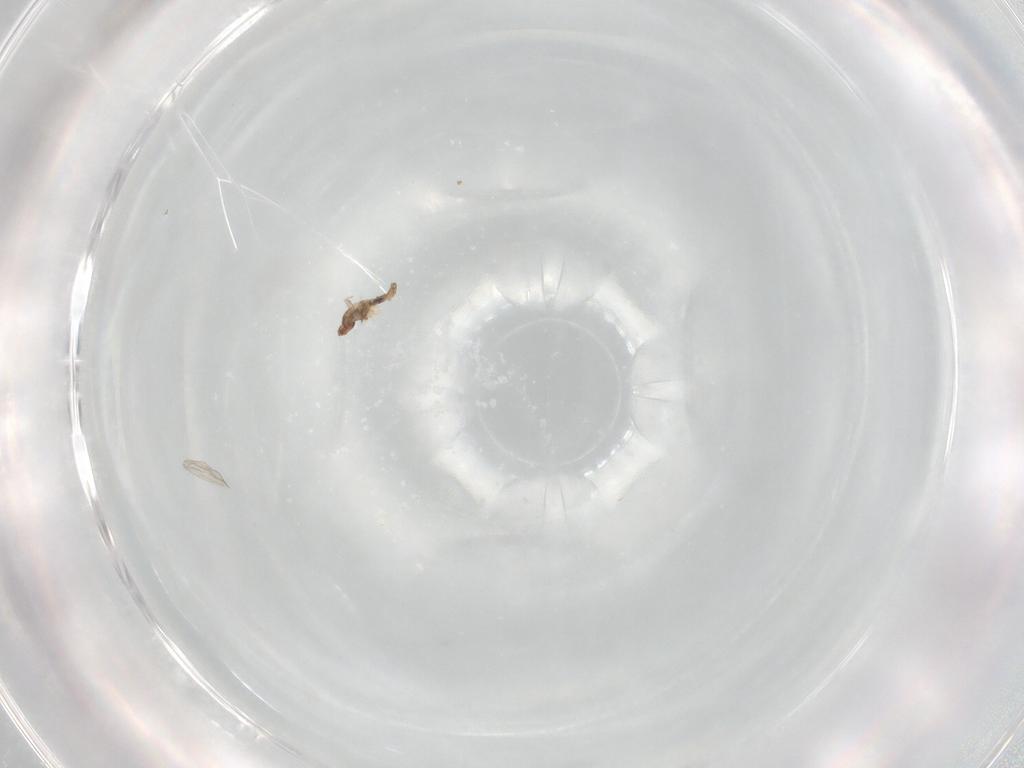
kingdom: Animalia
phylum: Arthropoda
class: Insecta
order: Diptera
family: Cecidomyiidae
